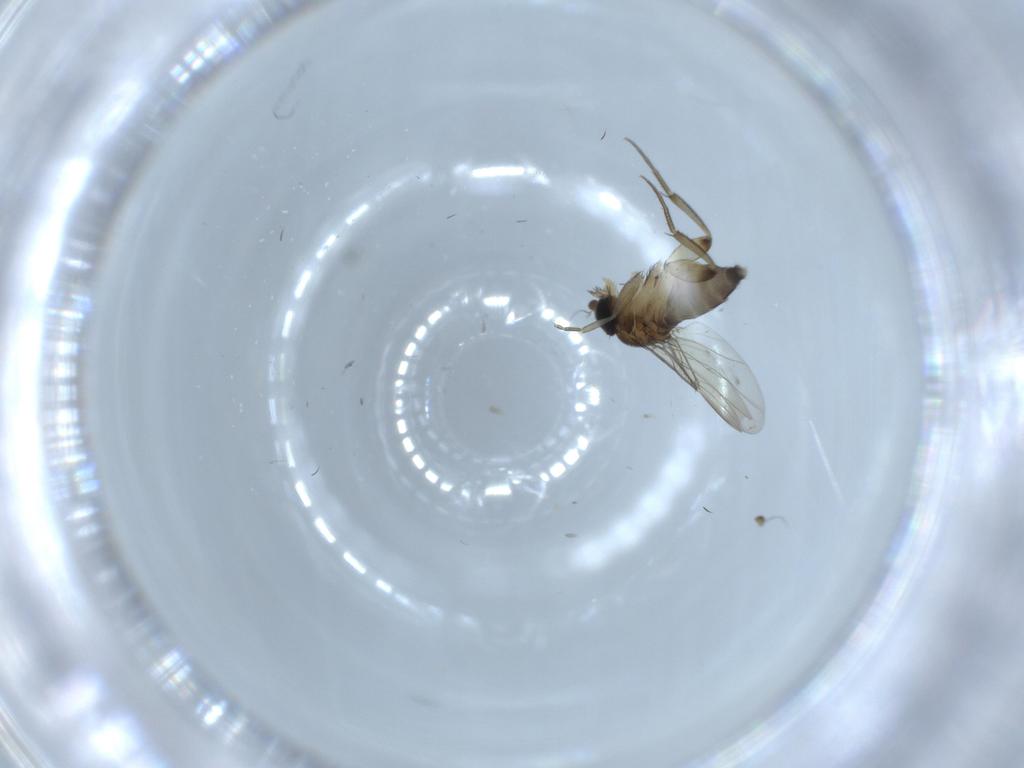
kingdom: Animalia
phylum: Arthropoda
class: Insecta
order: Diptera
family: Phoridae
